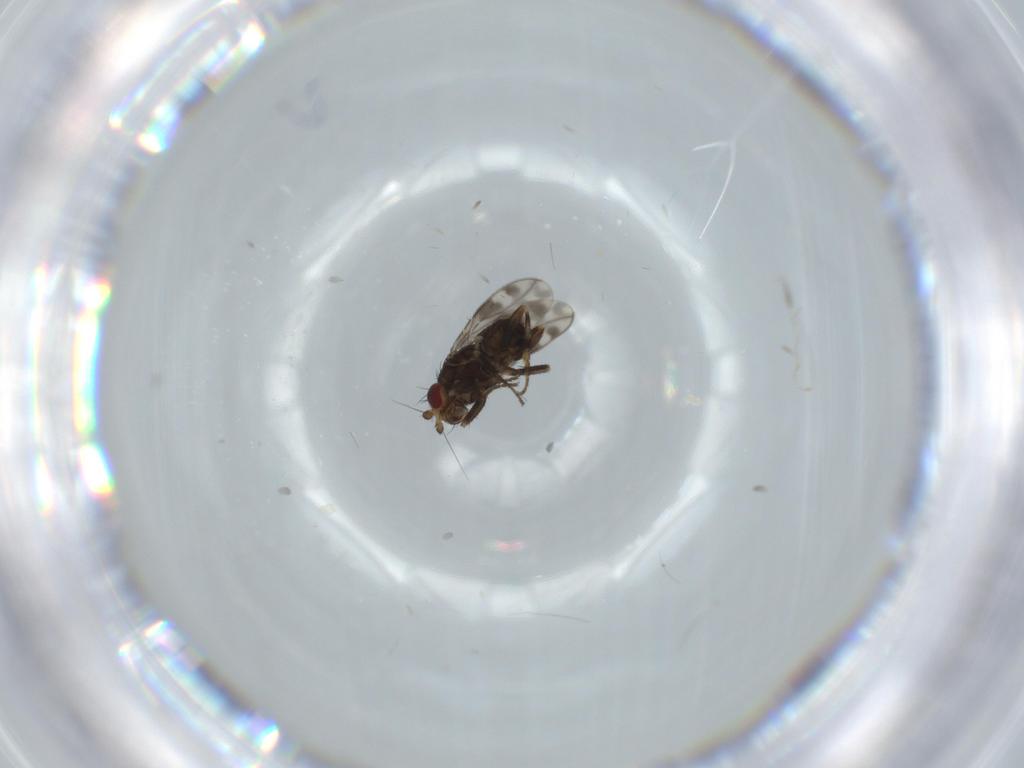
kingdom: Animalia
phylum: Arthropoda
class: Insecta
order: Diptera
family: Sphaeroceridae
